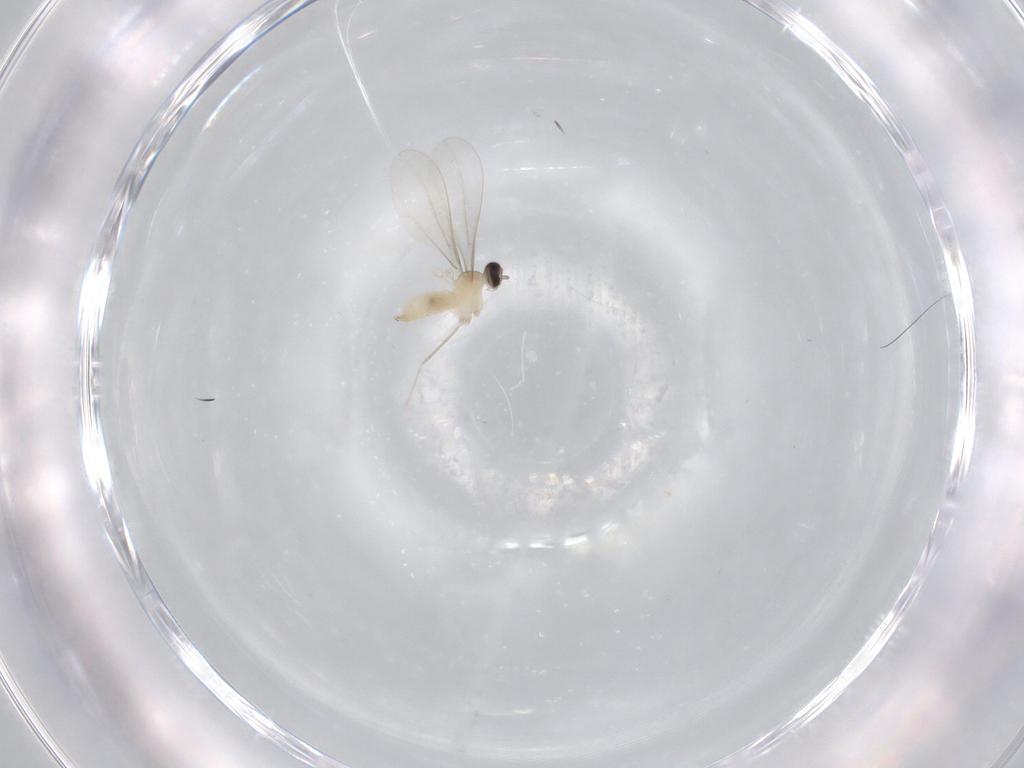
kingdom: Animalia
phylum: Arthropoda
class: Insecta
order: Diptera
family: Cecidomyiidae
